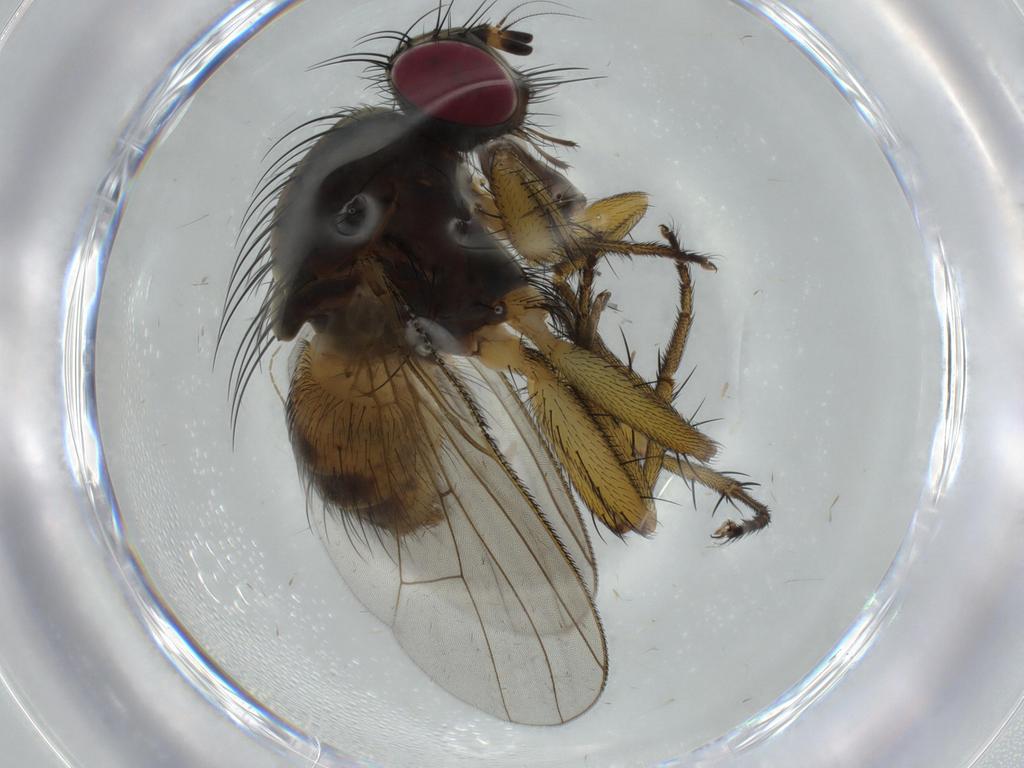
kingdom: Animalia
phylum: Arthropoda
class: Insecta
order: Diptera
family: Muscidae
